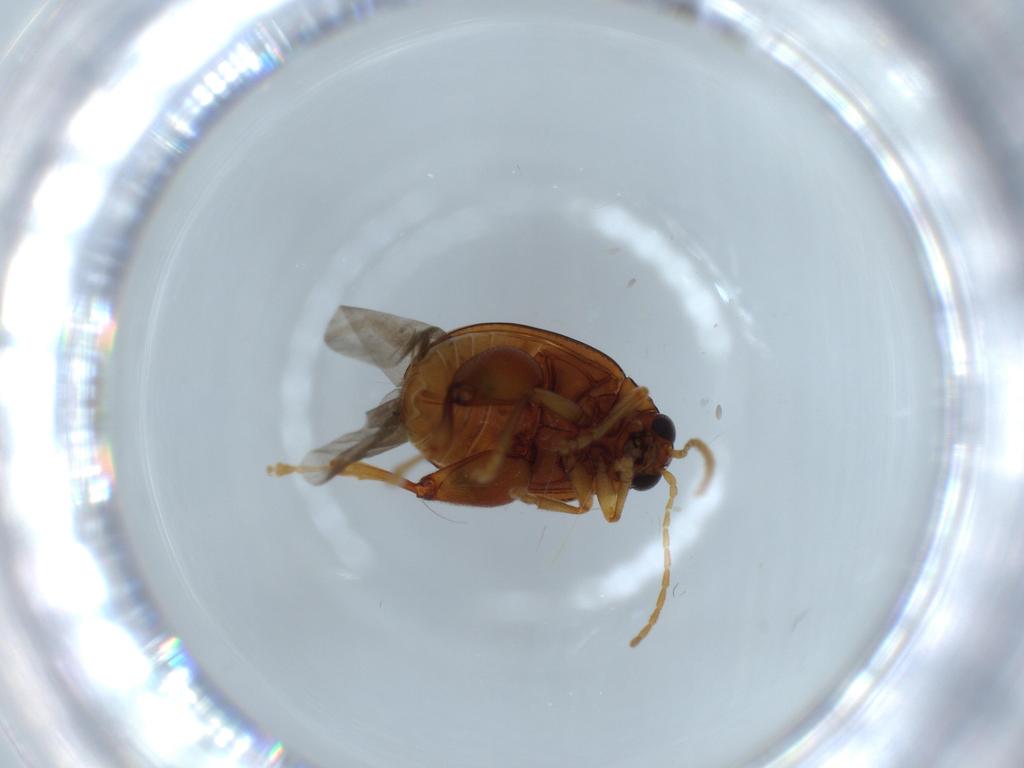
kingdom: Animalia
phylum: Arthropoda
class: Insecta
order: Coleoptera
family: Chrysomelidae
